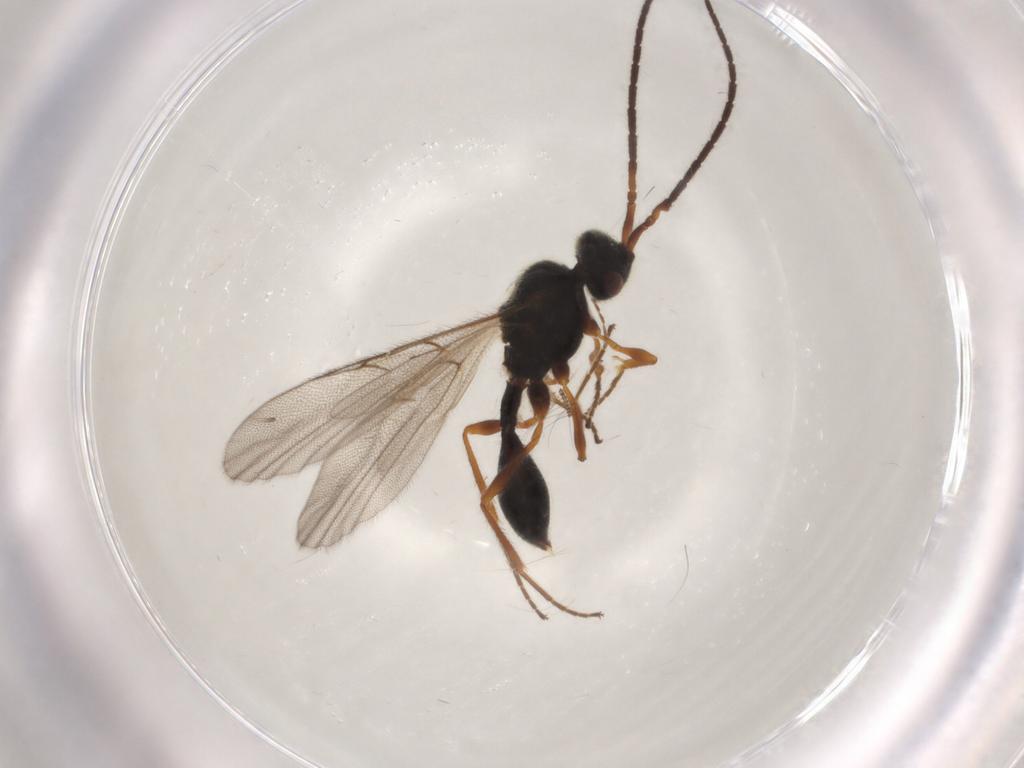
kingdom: Animalia
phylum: Arthropoda
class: Insecta
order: Hymenoptera
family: Diapriidae
